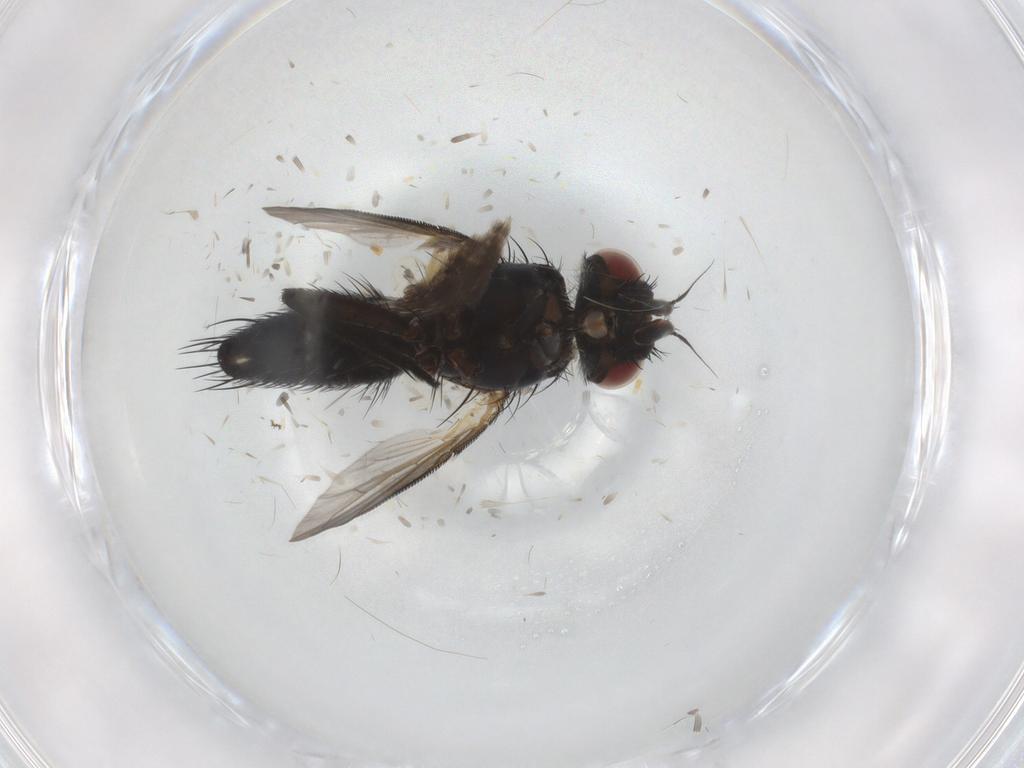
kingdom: Animalia
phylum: Arthropoda
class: Insecta
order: Diptera
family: Tachinidae
